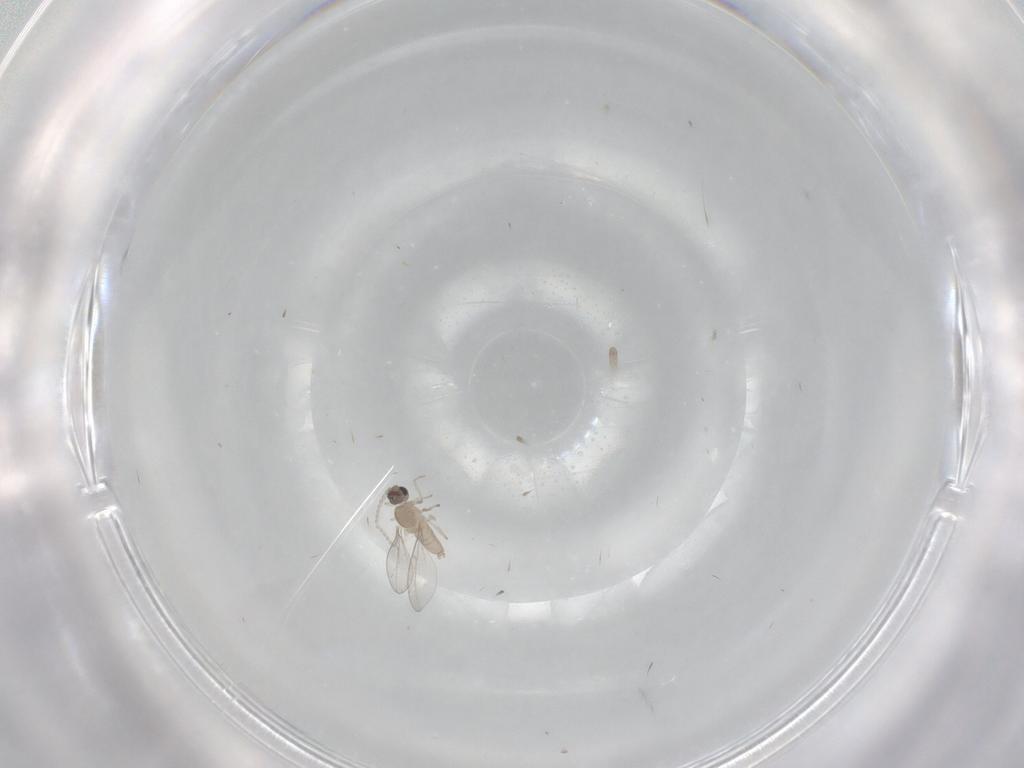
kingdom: Animalia
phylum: Arthropoda
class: Insecta
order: Diptera
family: Cecidomyiidae
